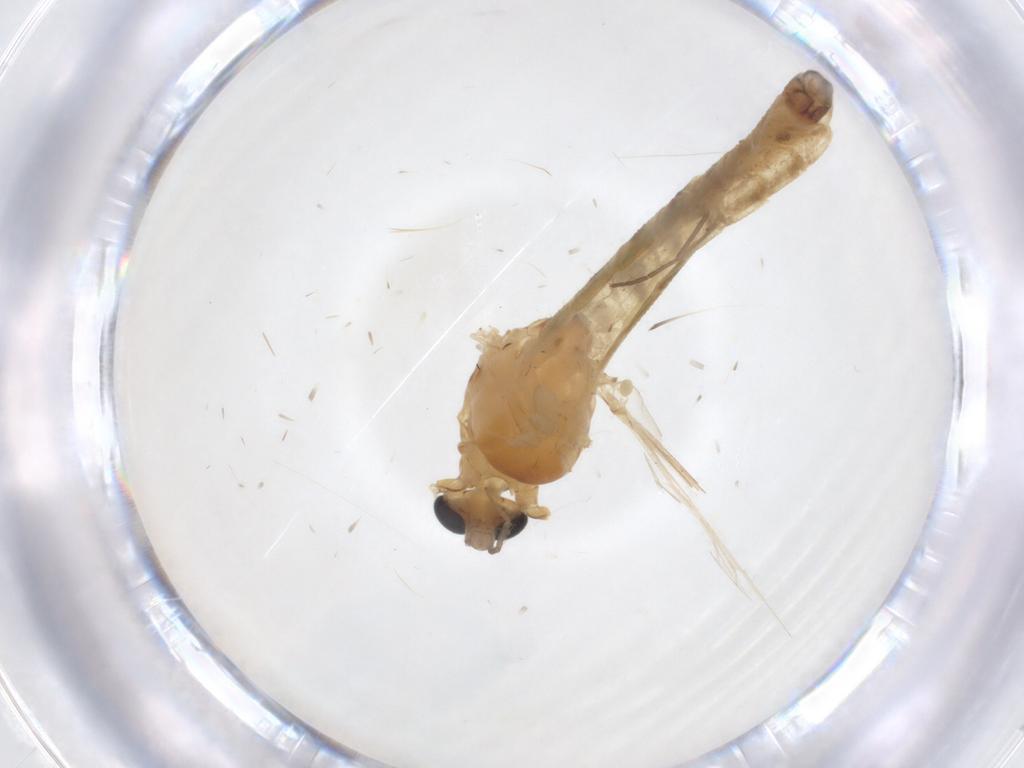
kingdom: Animalia
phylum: Arthropoda
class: Insecta
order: Diptera
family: Chironomidae
